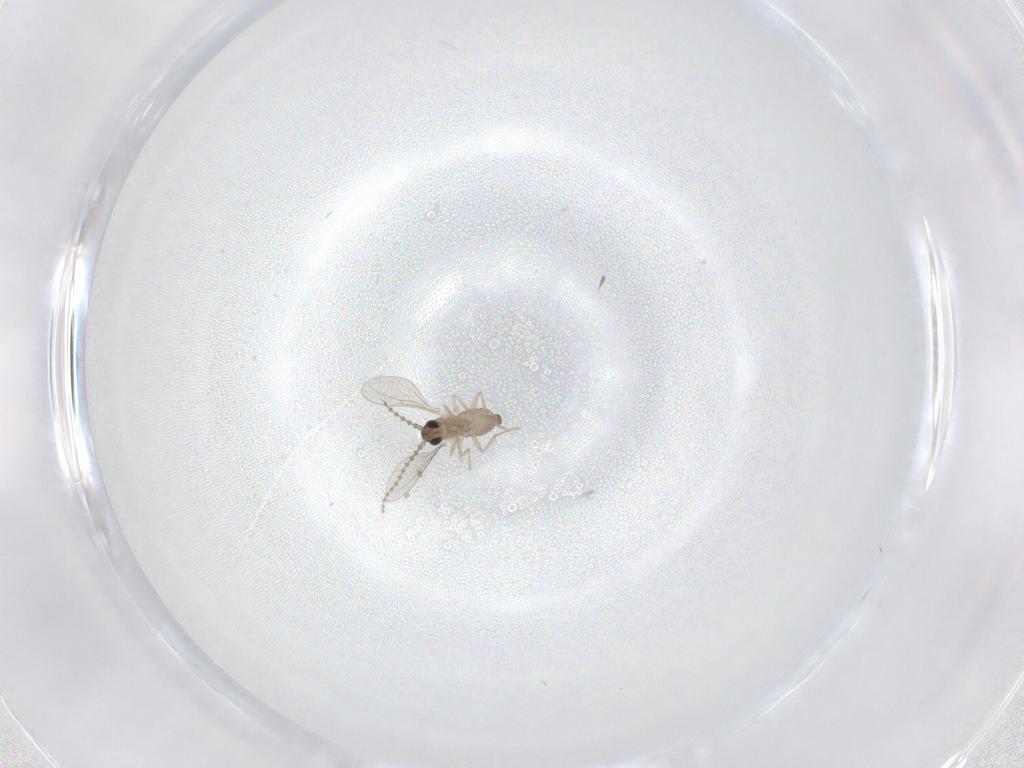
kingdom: Animalia
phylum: Arthropoda
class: Insecta
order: Diptera
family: Cecidomyiidae
